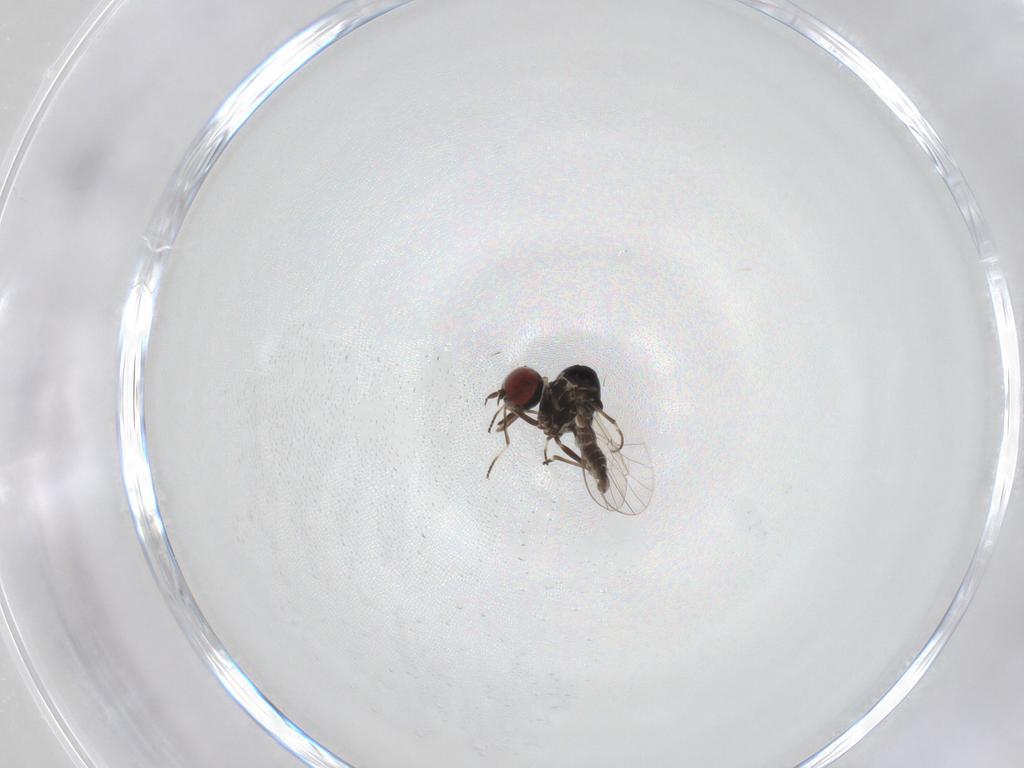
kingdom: Animalia
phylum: Arthropoda
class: Insecta
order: Diptera
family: Mythicomyiidae
